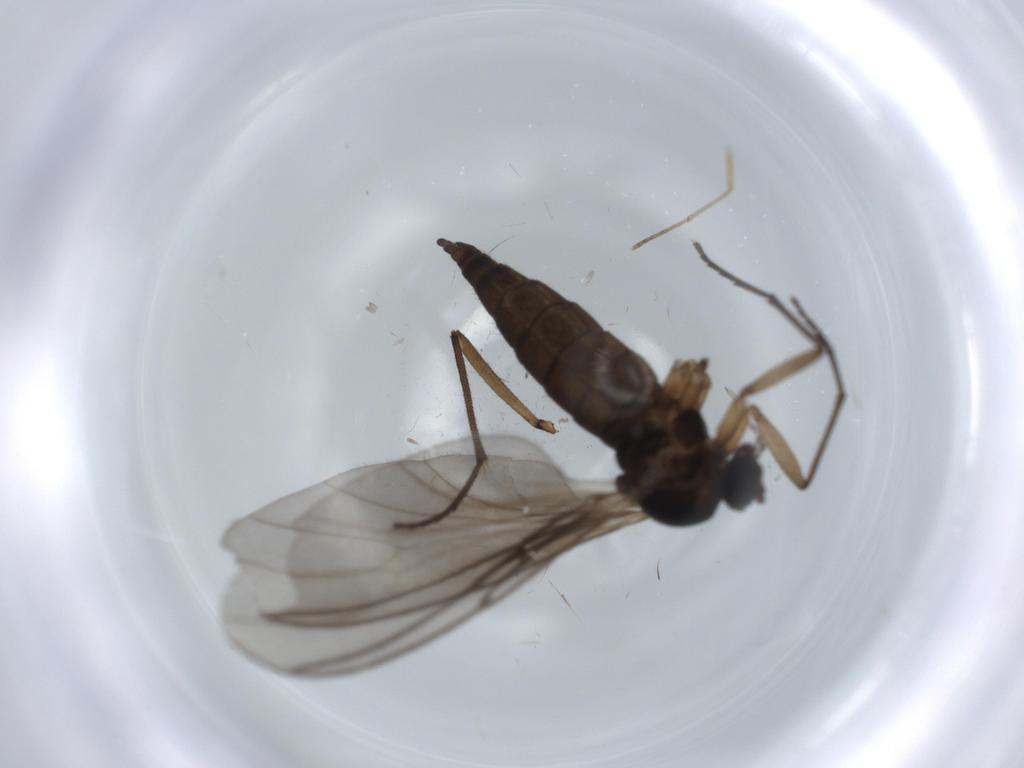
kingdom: Animalia
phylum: Arthropoda
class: Insecta
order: Diptera
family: Sciaridae
